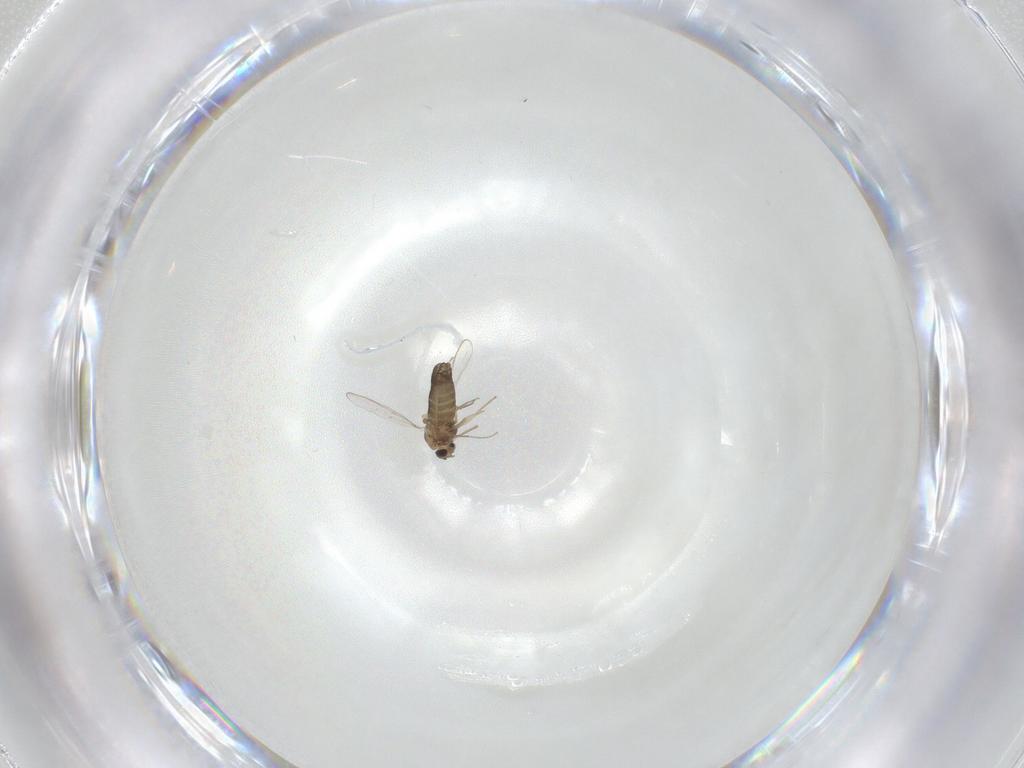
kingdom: Animalia
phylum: Arthropoda
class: Insecta
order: Diptera
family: Chironomidae
